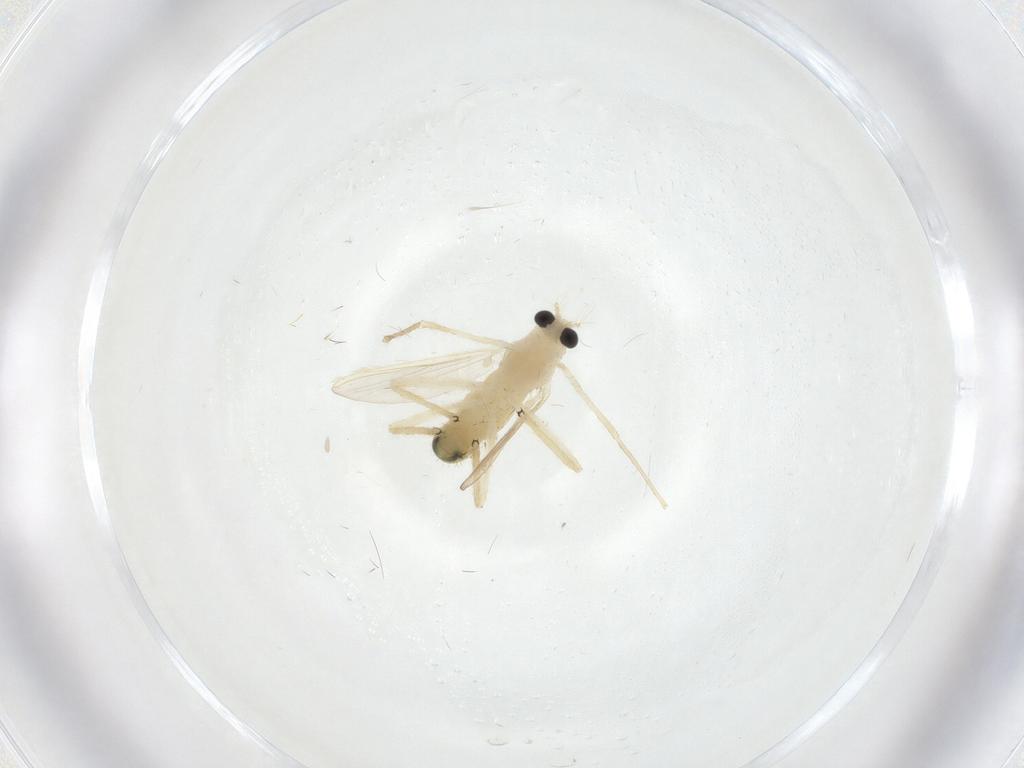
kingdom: Animalia
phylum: Arthropoda
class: Insecta
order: Diptera
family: Chironomidae
